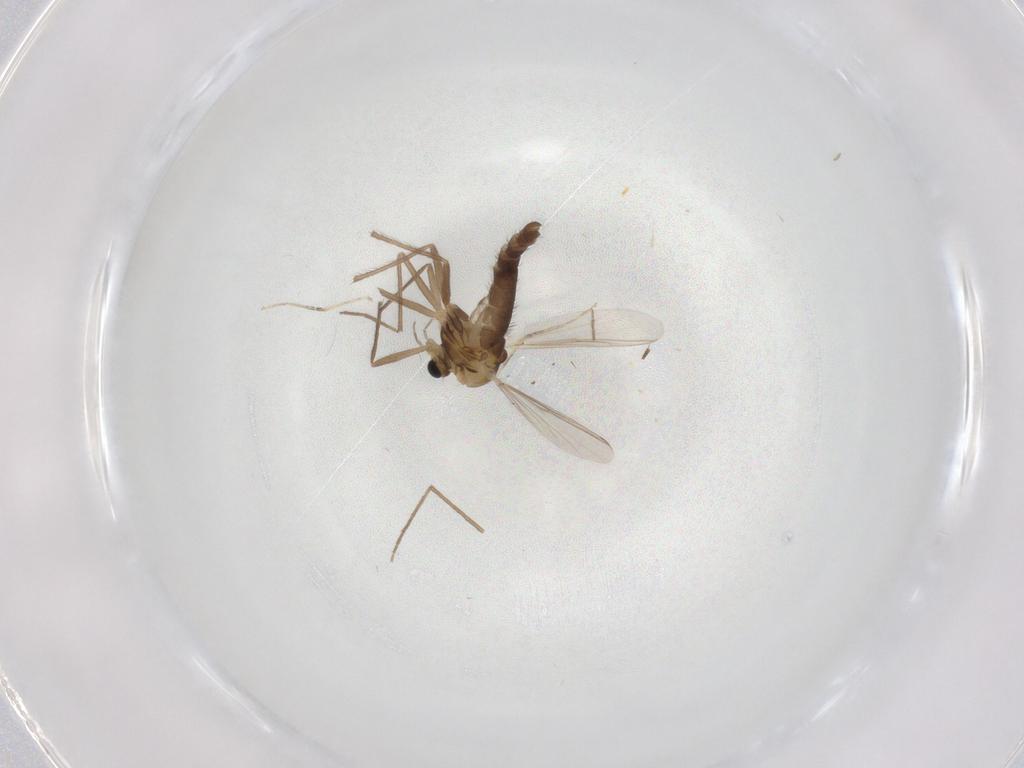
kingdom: Animalia
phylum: Arthropoda
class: Insecta
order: Diptera
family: Chironomidae
